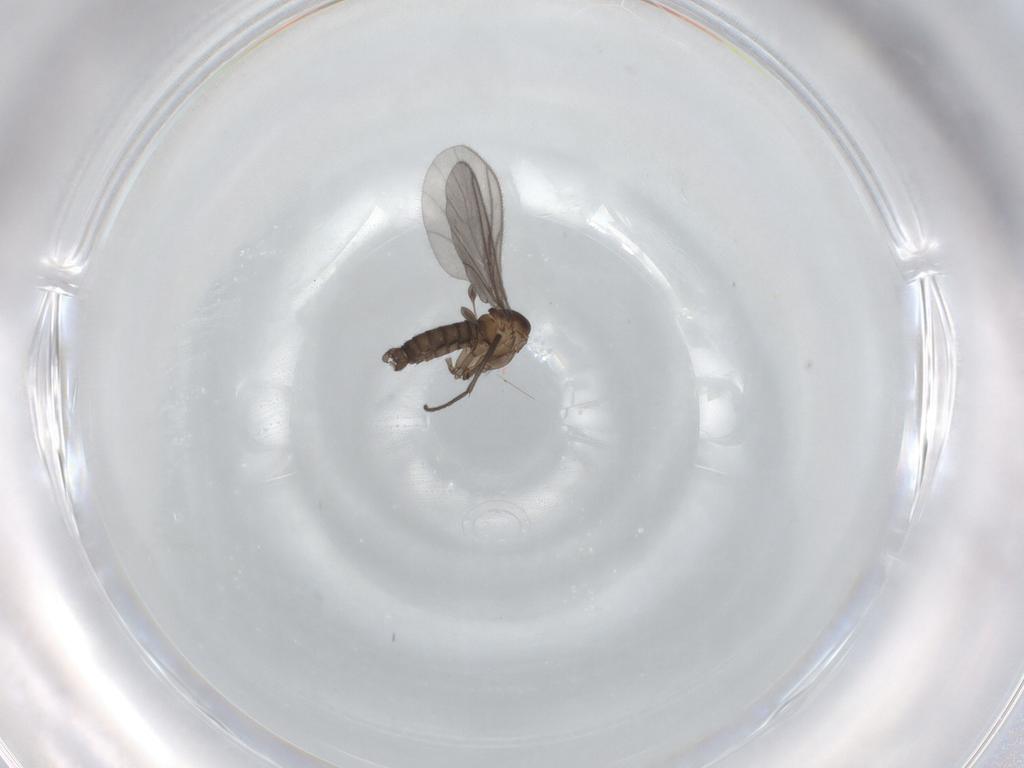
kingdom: Animalia
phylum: Arthropoda
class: Insecta
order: Diptera
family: Sciaridae
